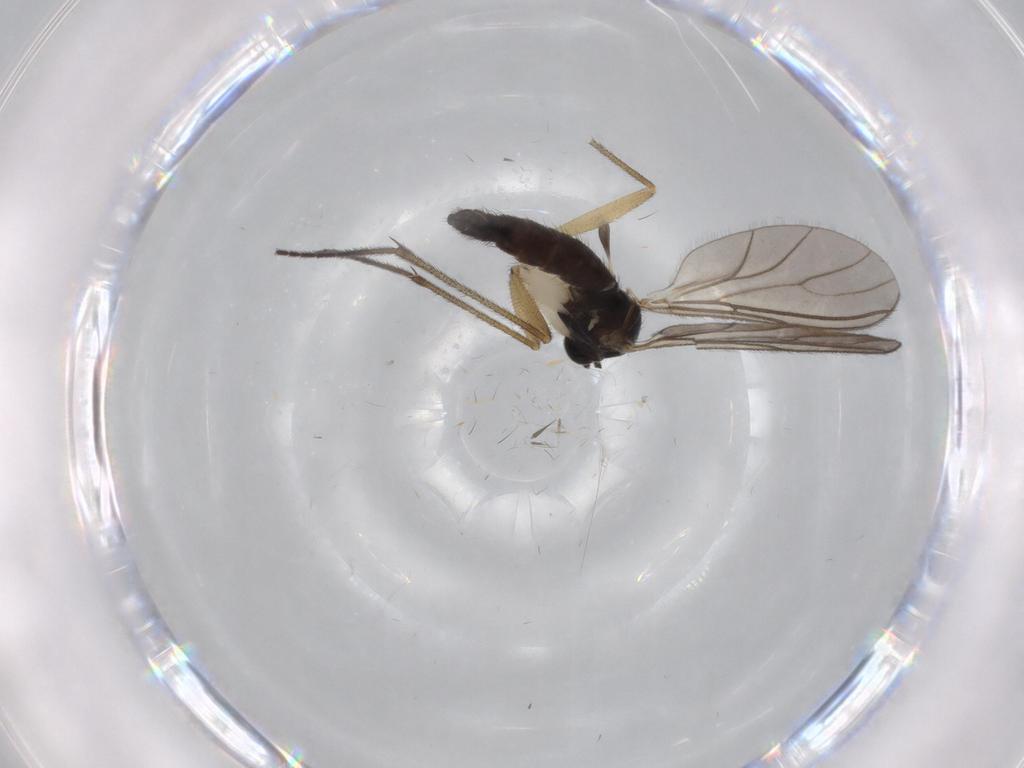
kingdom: Animalia
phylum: Arthropoda
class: Insecta
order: Diptera
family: Sciaridae
